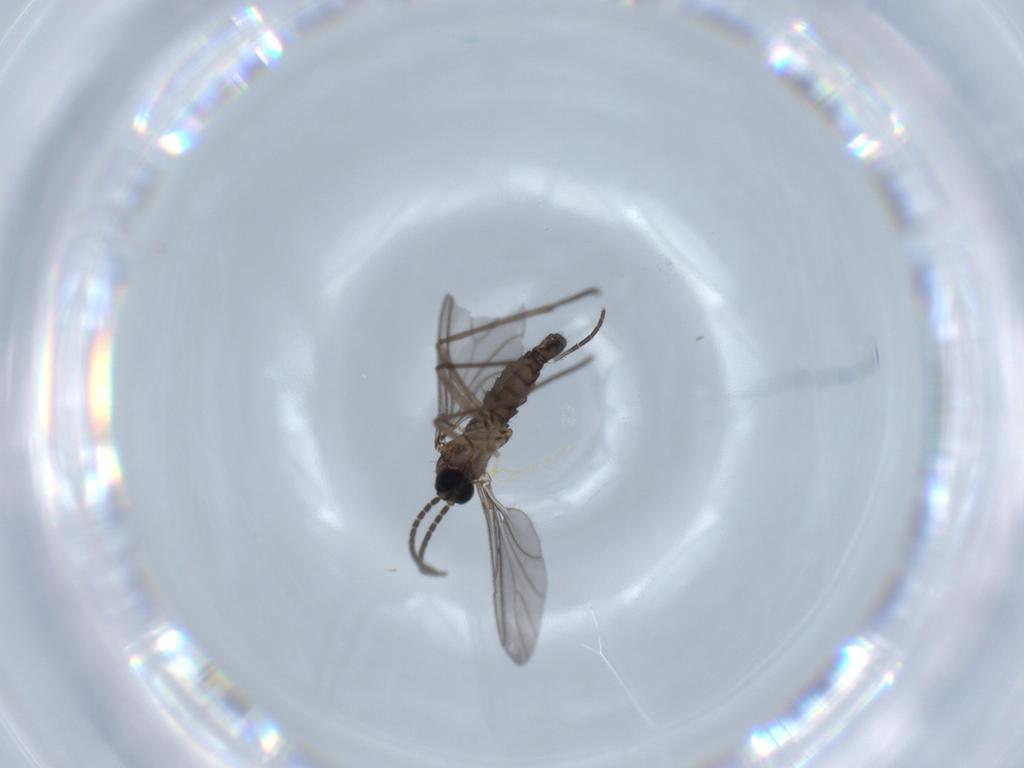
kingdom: Animalia
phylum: Arthropoda
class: Insecta
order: Diptera
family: Sciaridae
